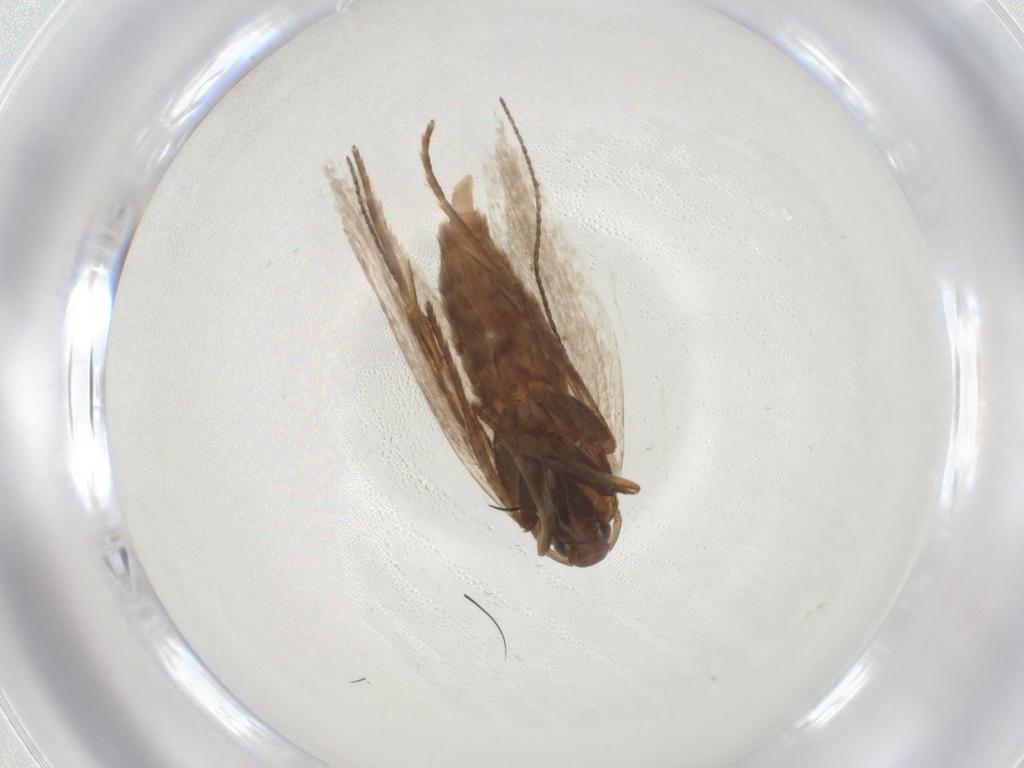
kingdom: Animalia
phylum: Arthropoda
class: Insecta
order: Lepidoptera
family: Erebidae
